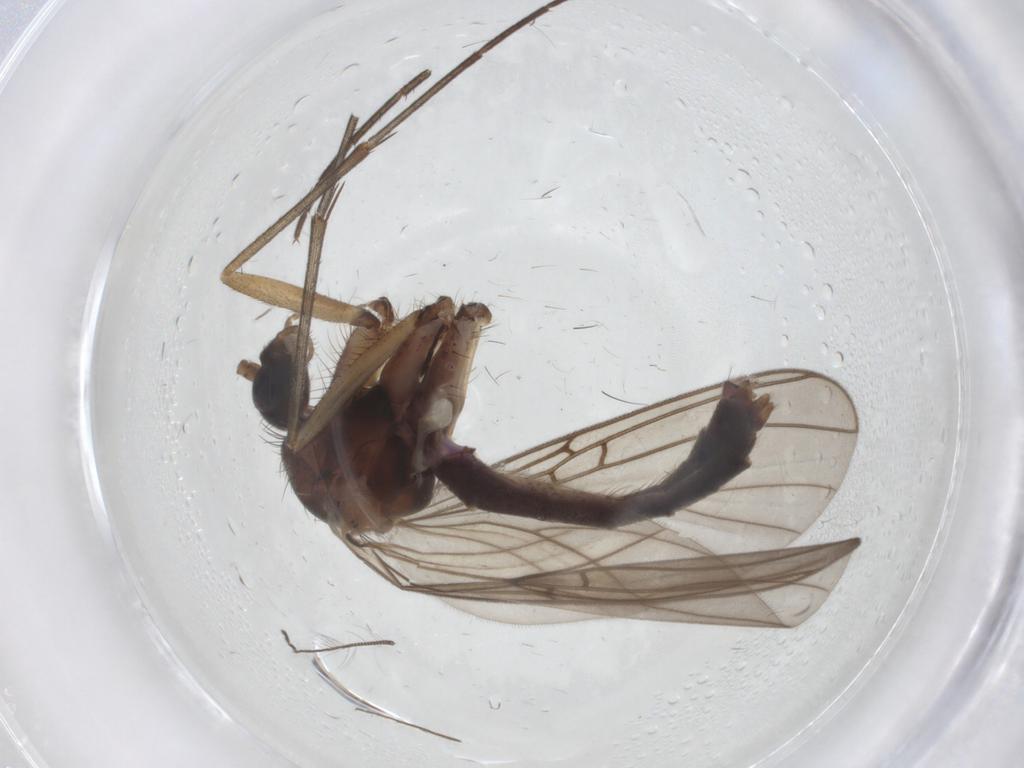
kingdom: Animalia
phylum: Arthropoda
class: Insecta
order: Diptera
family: Mycetophilidae
